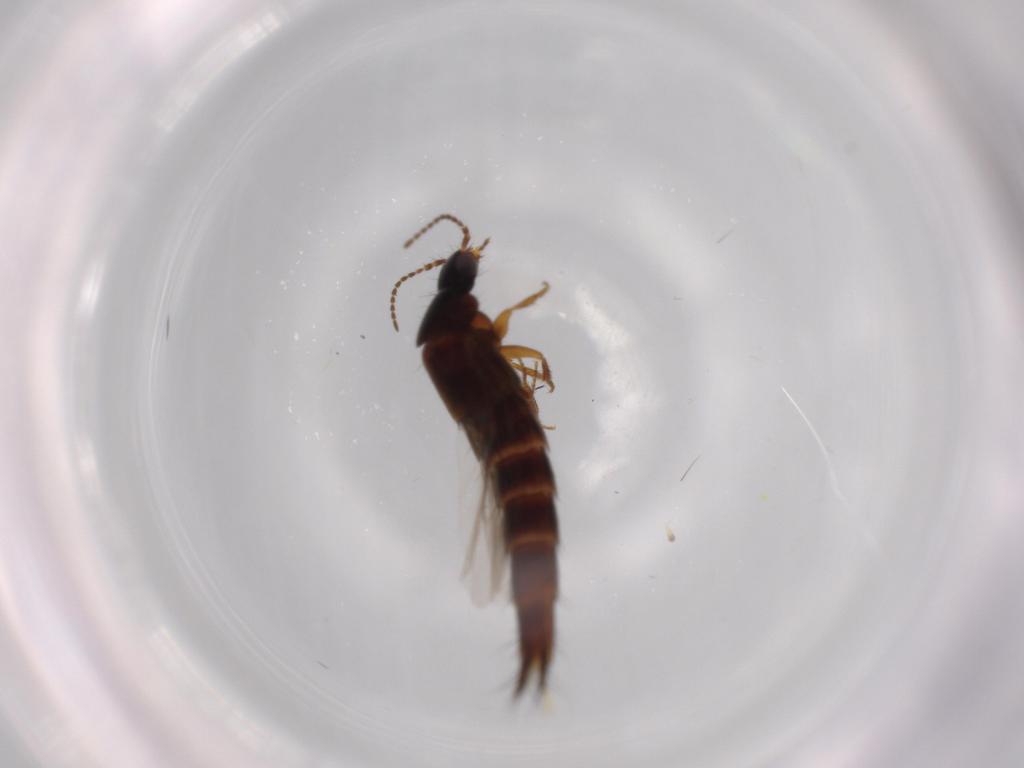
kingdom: Animalia
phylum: Arthropoda
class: Insecta
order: Coleoptera
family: Staphylinidae
